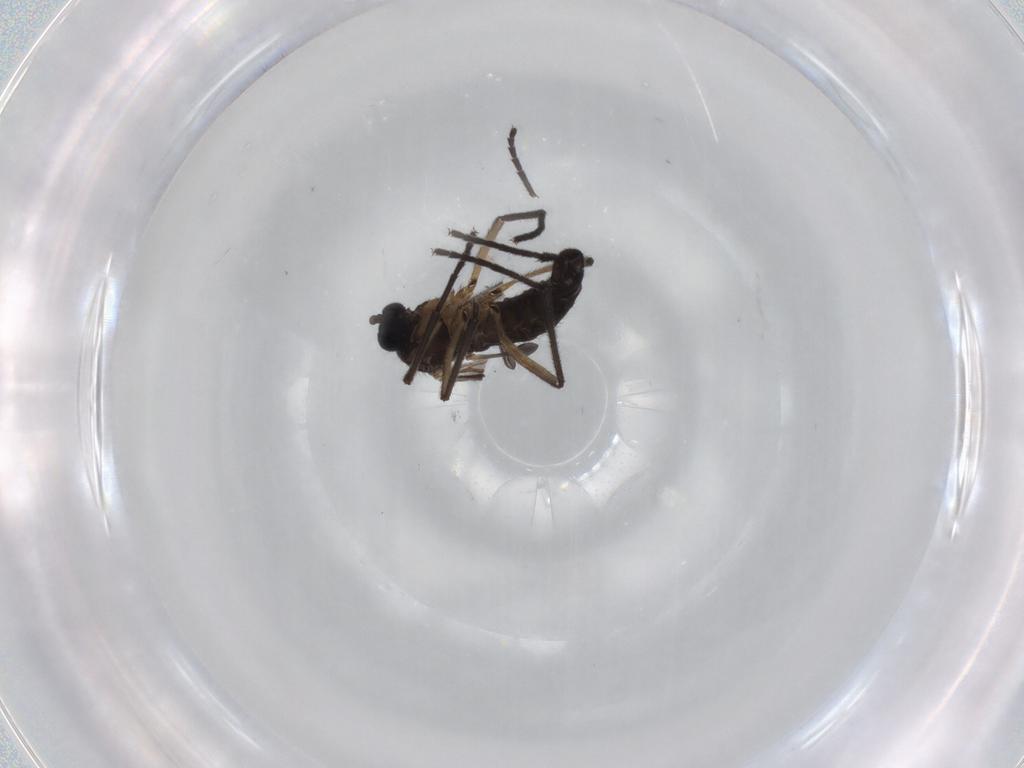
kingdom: Animalia
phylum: Arthropoda
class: Insecta
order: Diptera
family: Sciaridae
